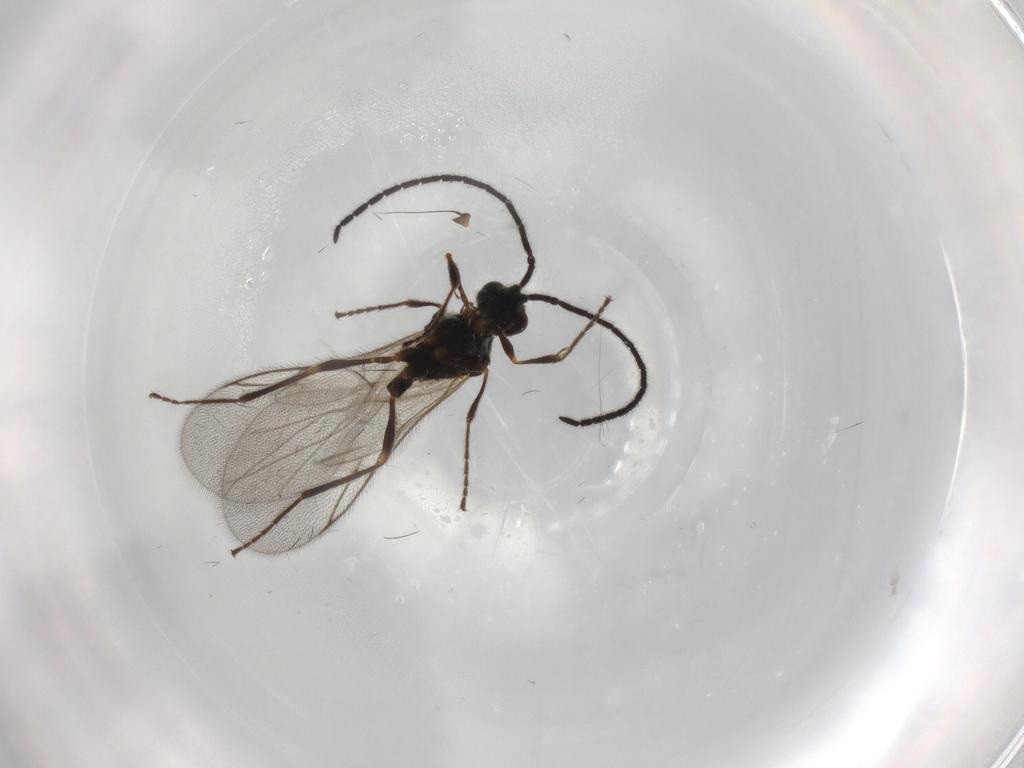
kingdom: Animalia
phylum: Arthropoda
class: Insecta
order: Hymenoptera
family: Diapriidae
